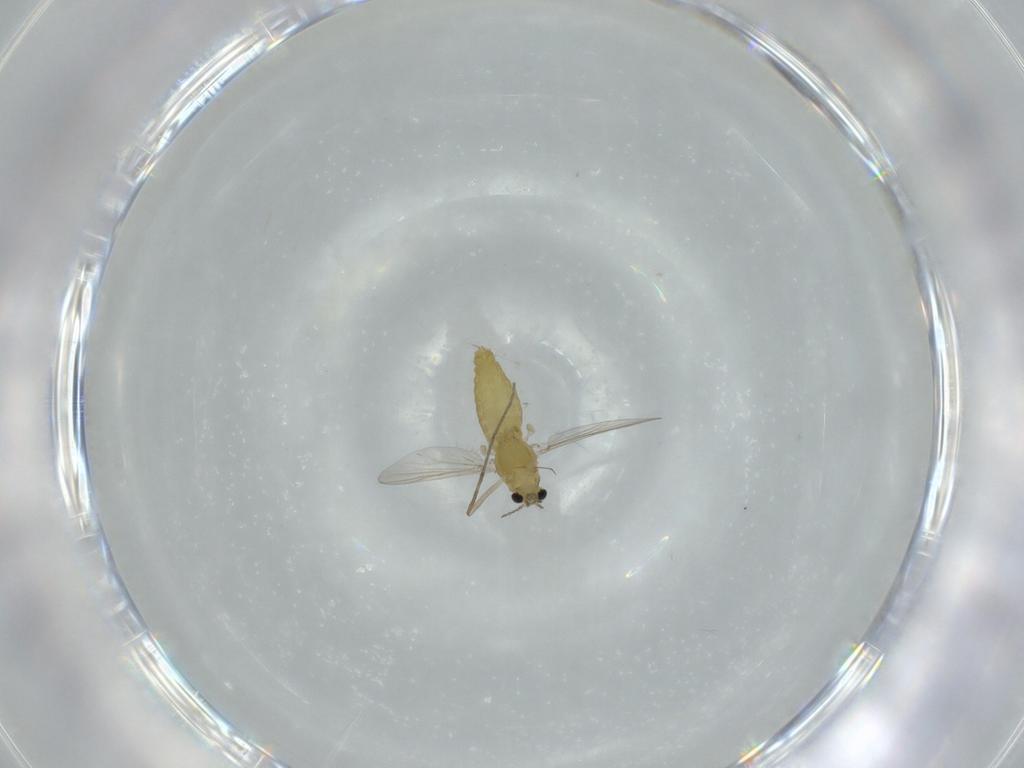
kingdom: Animalia
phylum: Arthropoda
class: Insecta
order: Diptera
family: Chironomidae
